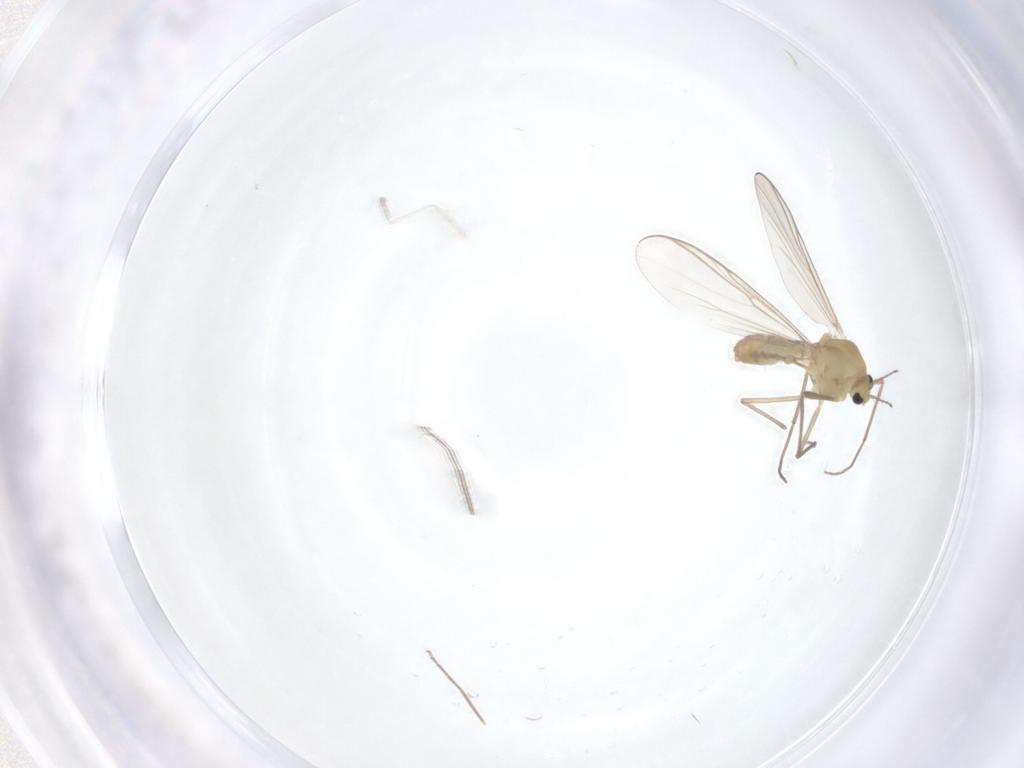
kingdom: Animalia
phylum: Arthropoda
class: Insecta
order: Diptera
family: Chironomidae
